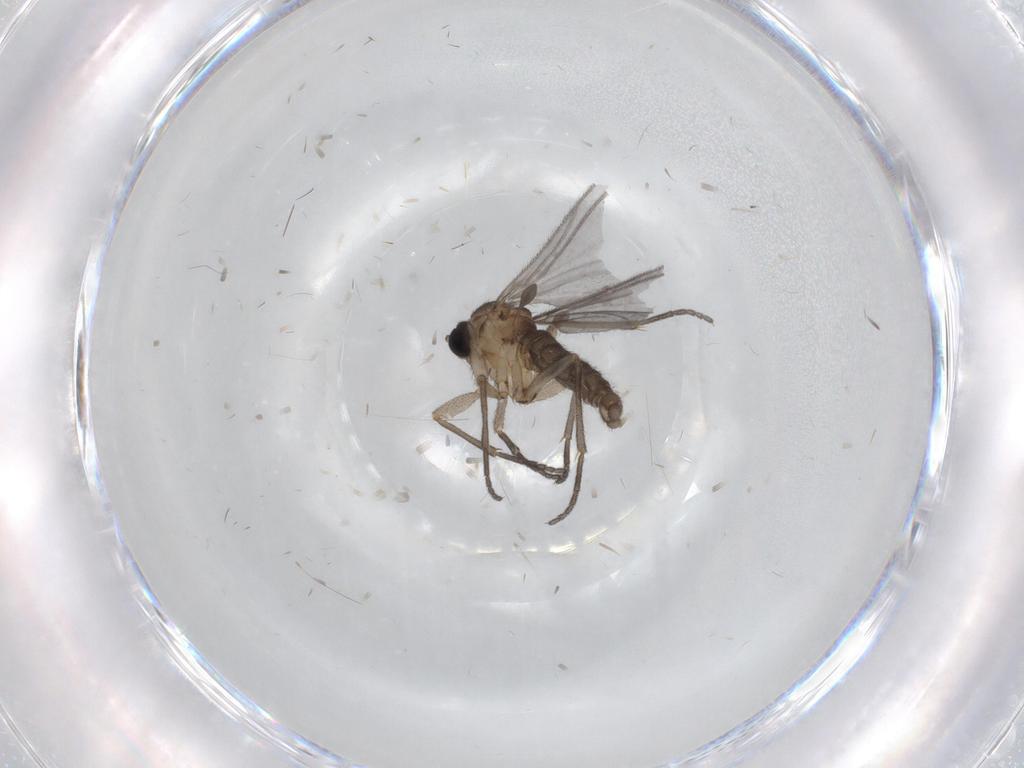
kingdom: Animalia
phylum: Arthropoda
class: Insecta
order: Diptera
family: Sciaridae
